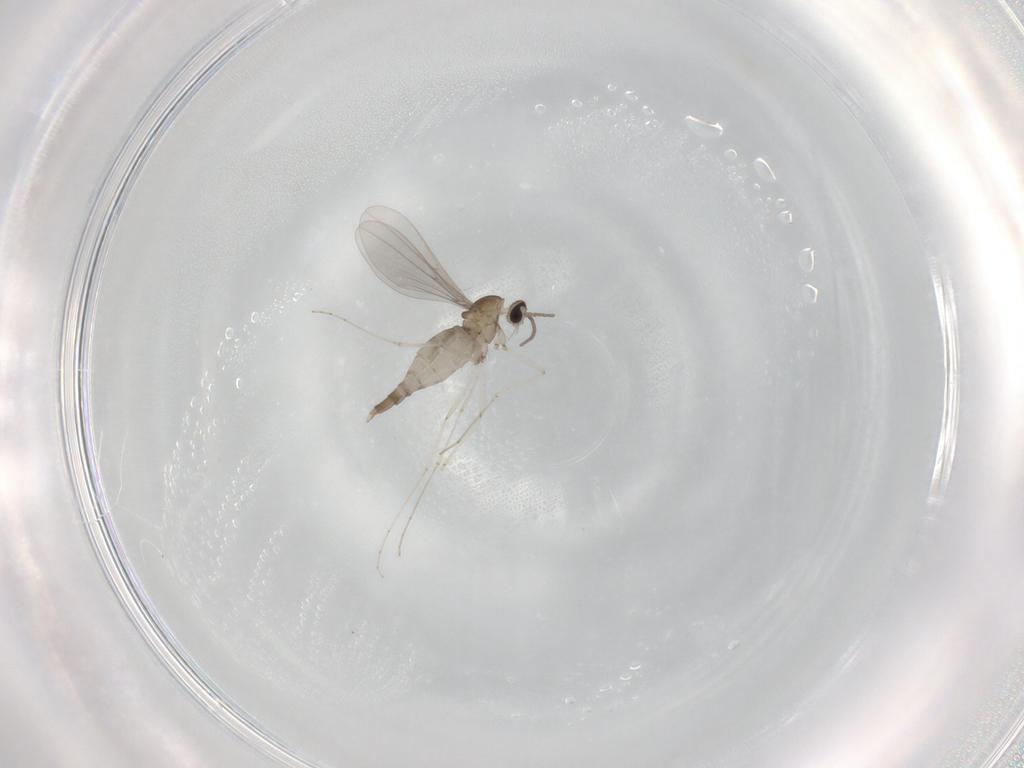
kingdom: Animalia
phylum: Arthropoda
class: Insecta
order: Diptera
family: Cecidomyiidae
